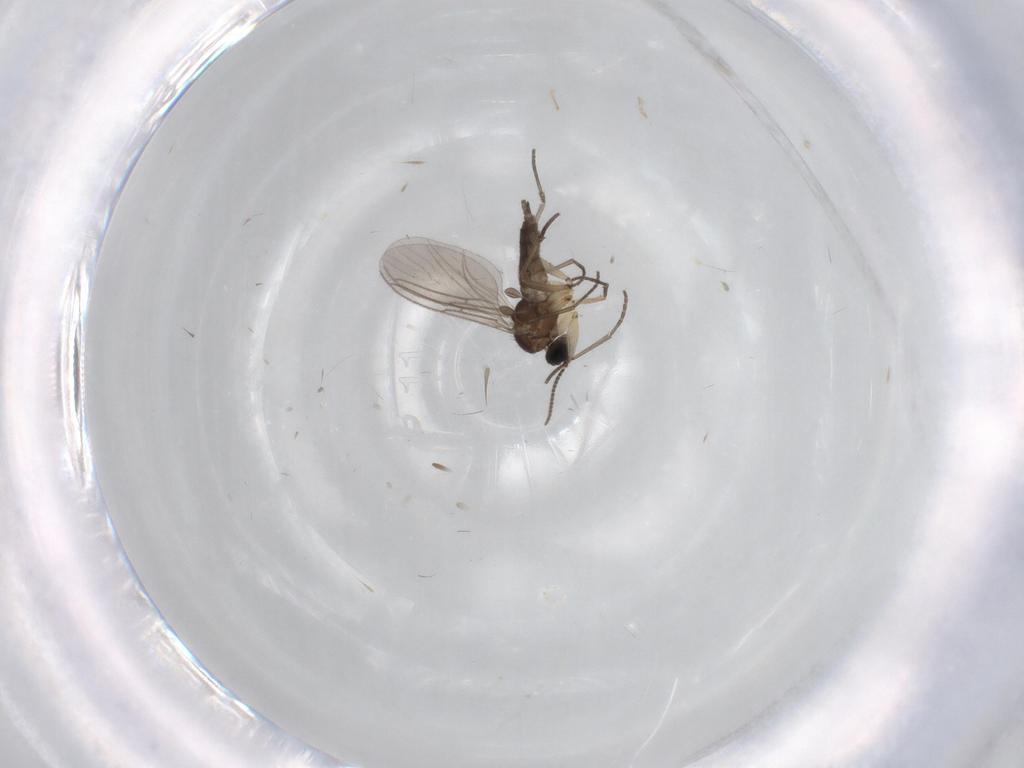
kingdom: Animalia
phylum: Arthropoda
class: Insecta
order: Diptera
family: Sciaridae
